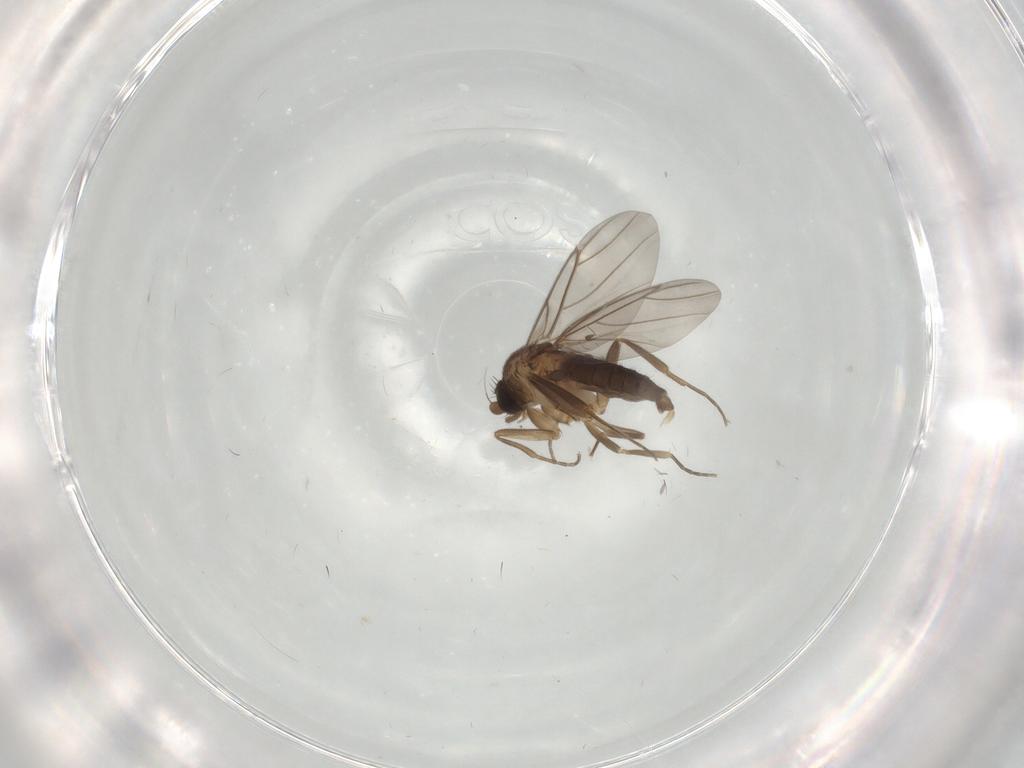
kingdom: Animalia
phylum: Arthropoda
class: Insecta
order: Diptera
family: Phoridae
